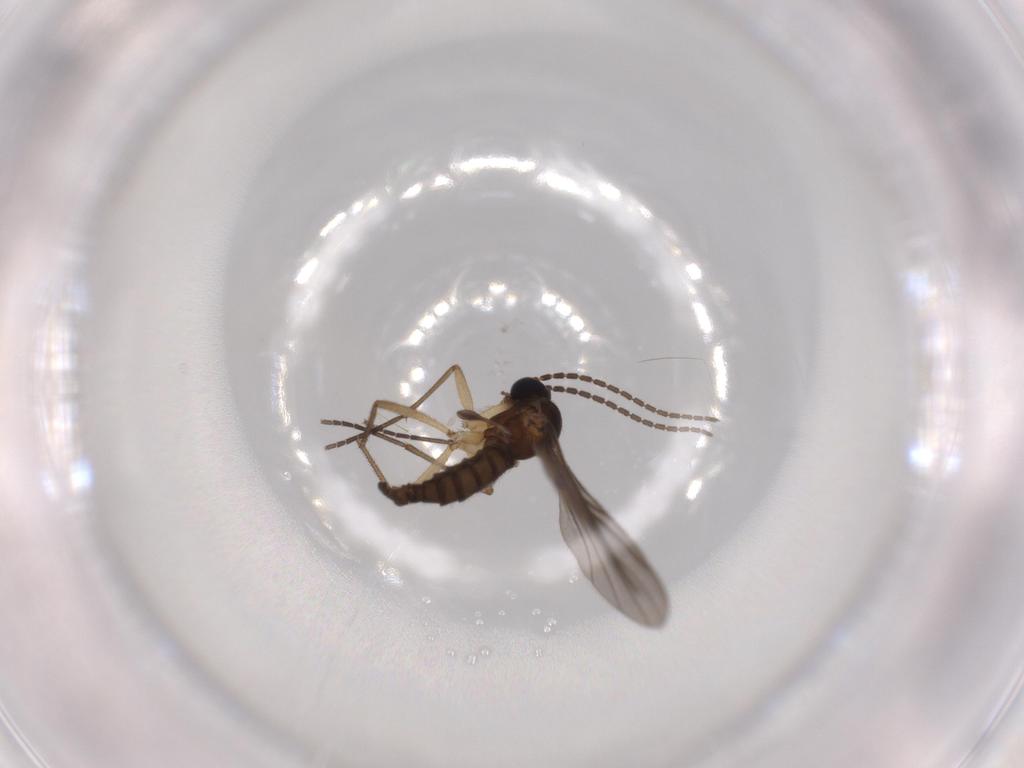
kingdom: Animalia
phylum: Arthropoda
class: Insecta
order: Diptera
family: Sciaridae
